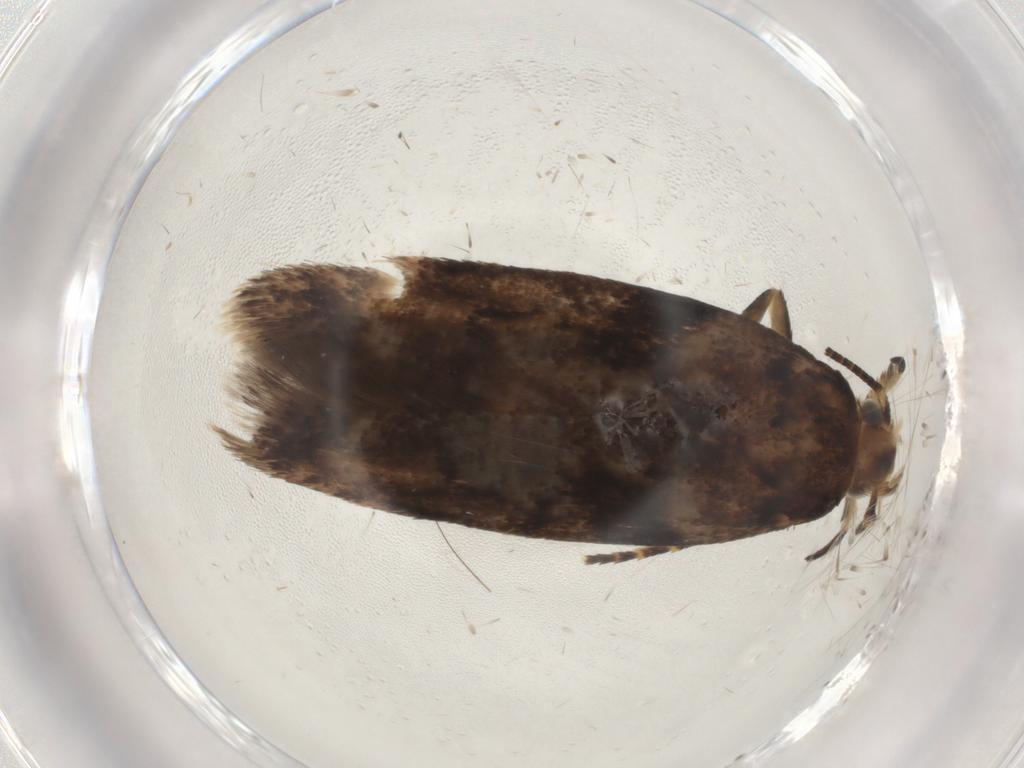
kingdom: Animalia
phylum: Arthropoda
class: Insecta
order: Lepidoptera
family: Gelechiidae
